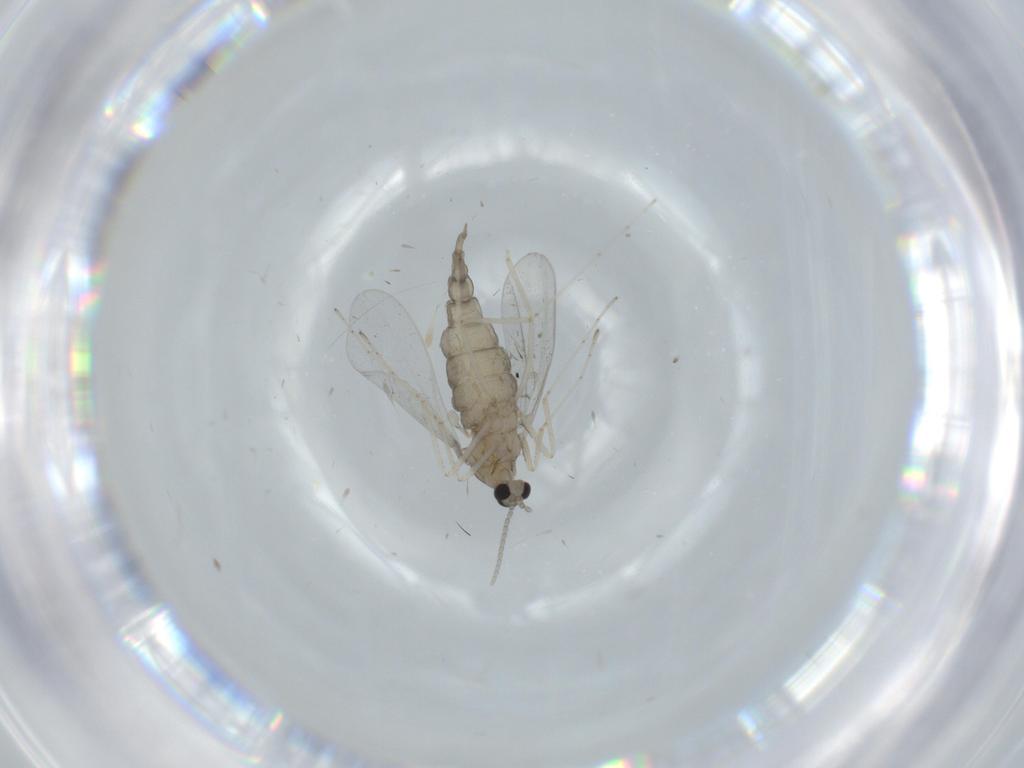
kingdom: Animalia
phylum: Arthropoda
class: Insecta
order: Diptera
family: Cecidomyiidae
